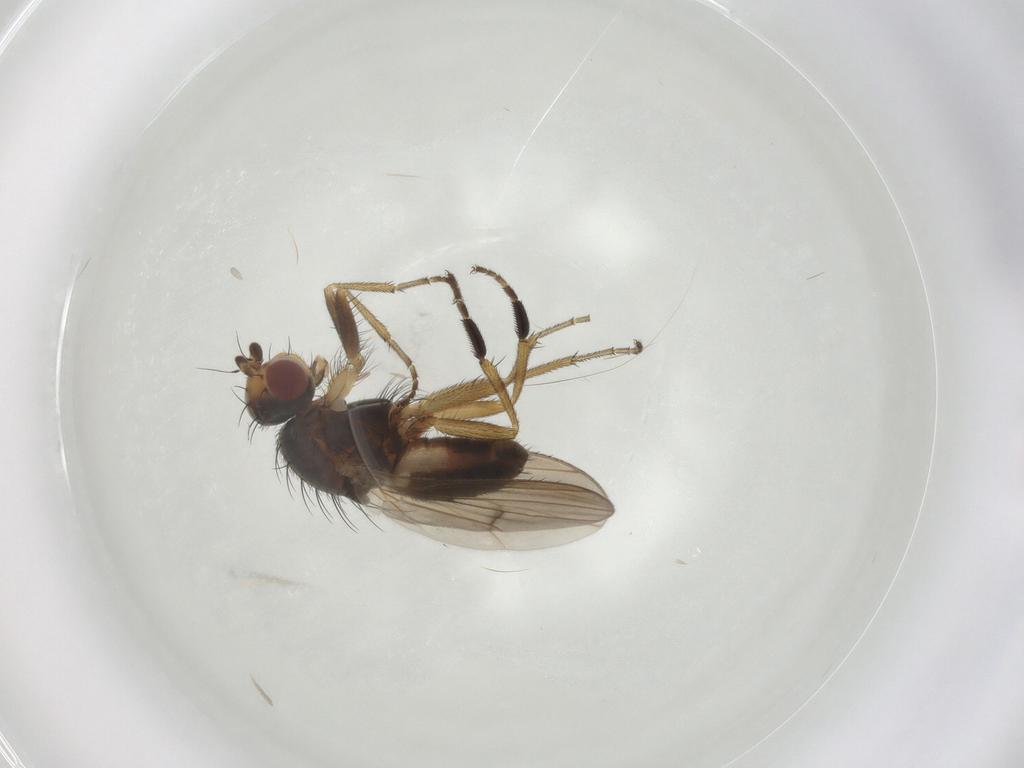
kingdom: Animalia
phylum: Arthropoda
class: Insecta
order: Diptera
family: Heleomyzidae
